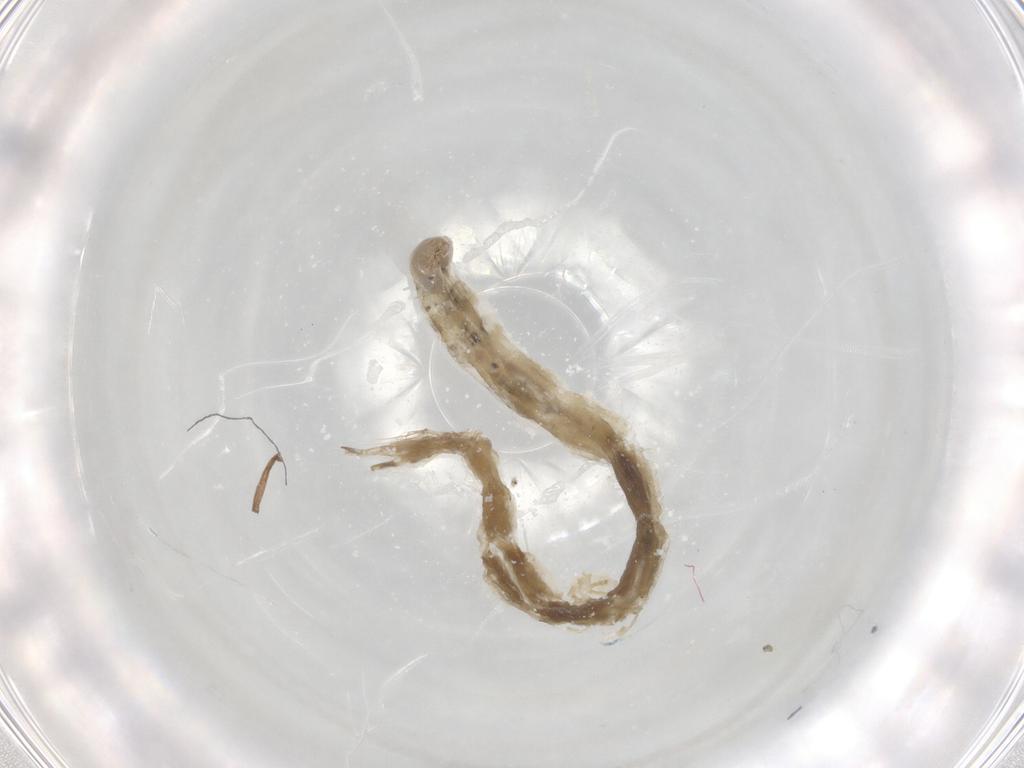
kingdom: Animalia
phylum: Arthropoda
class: Insecta
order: Diptera
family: Chironomidae
